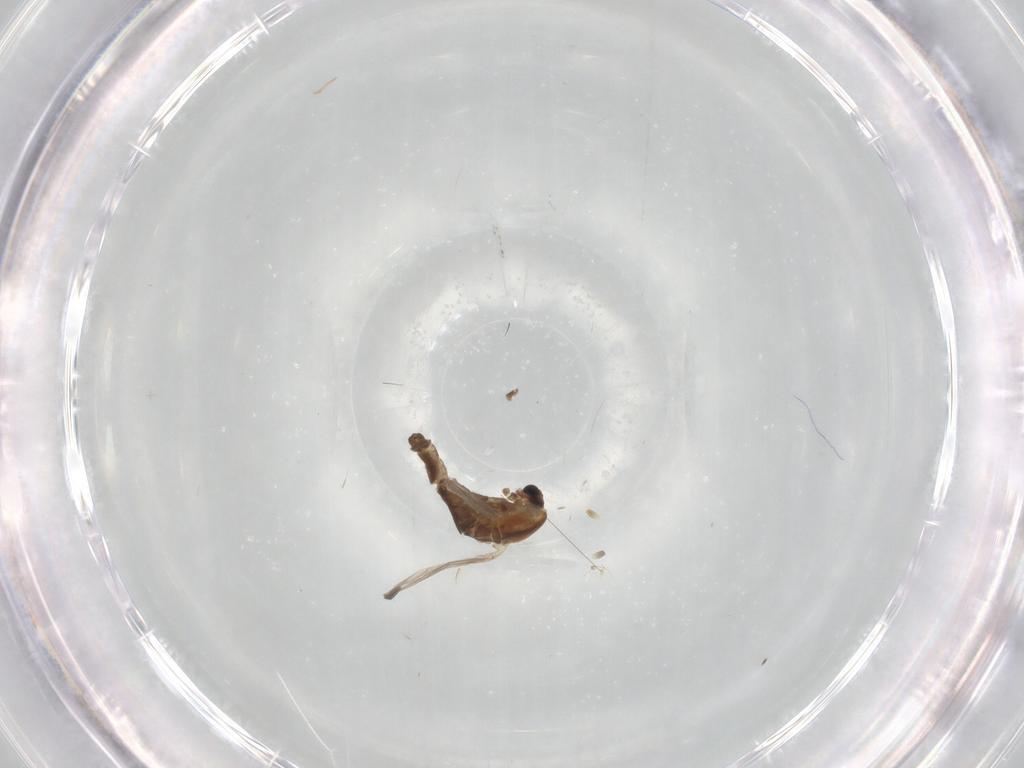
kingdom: Animalia
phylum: Arthropoda
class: Insecta
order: Diptera
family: Chironomidae
